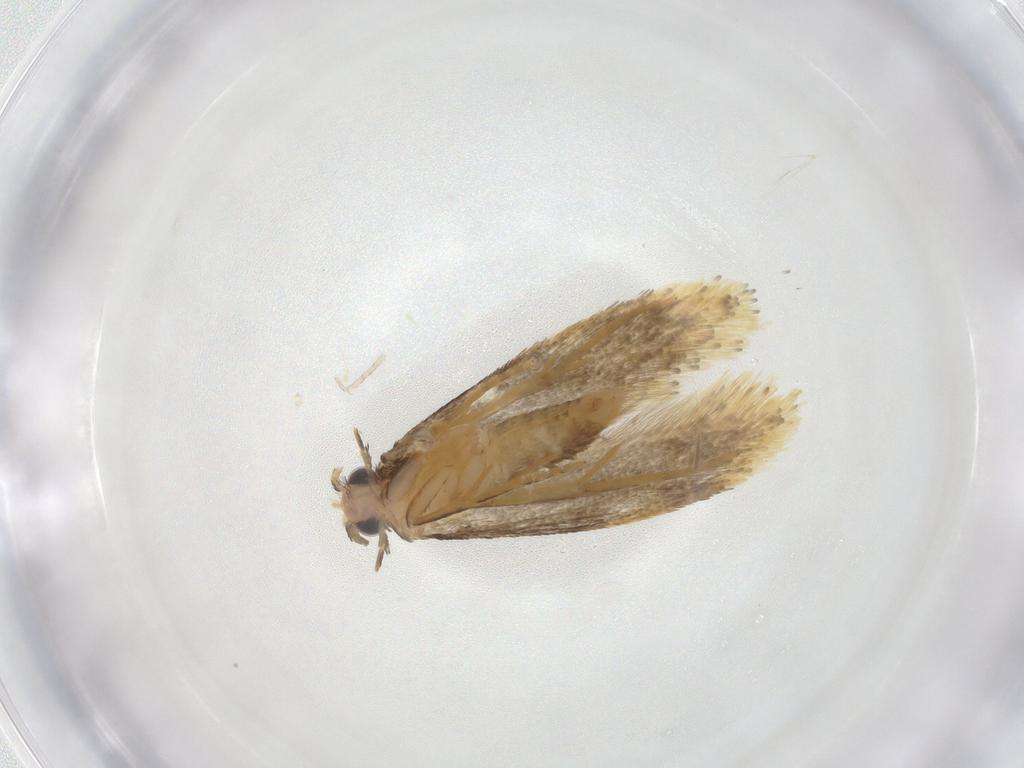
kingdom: Animalia
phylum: Arthropoda
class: Insecta
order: Lepidoptera
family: Tineidae
